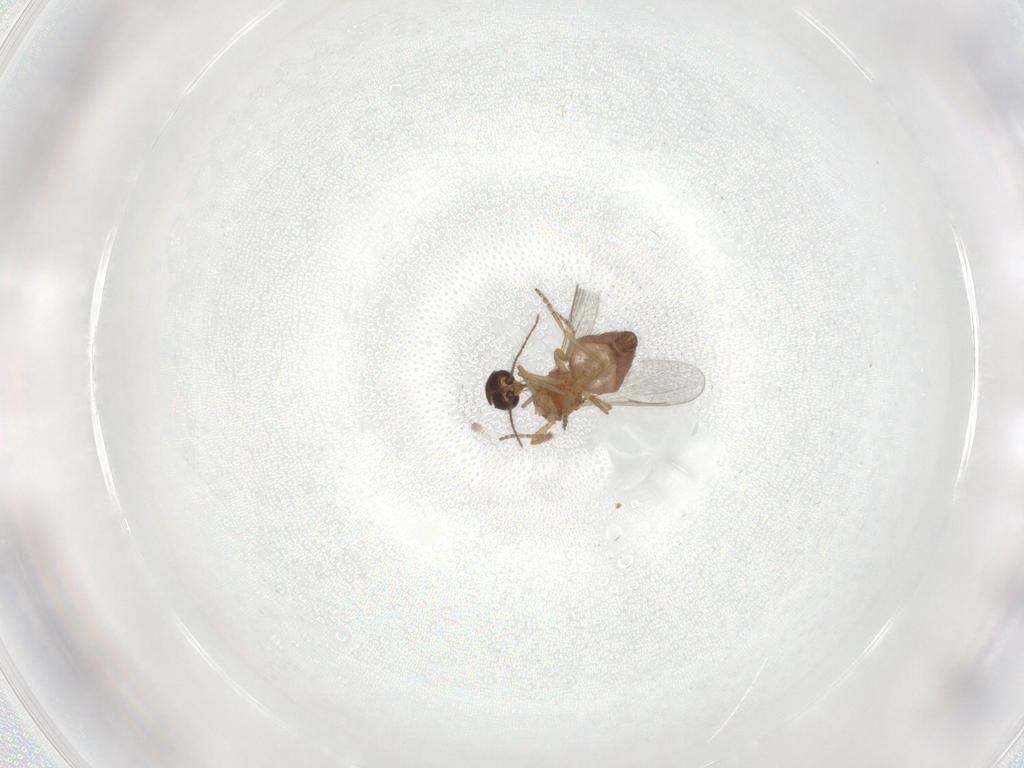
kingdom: Animalia
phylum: Arthropoda
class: Insecta
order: Diptera
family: Ceratopogonidae
